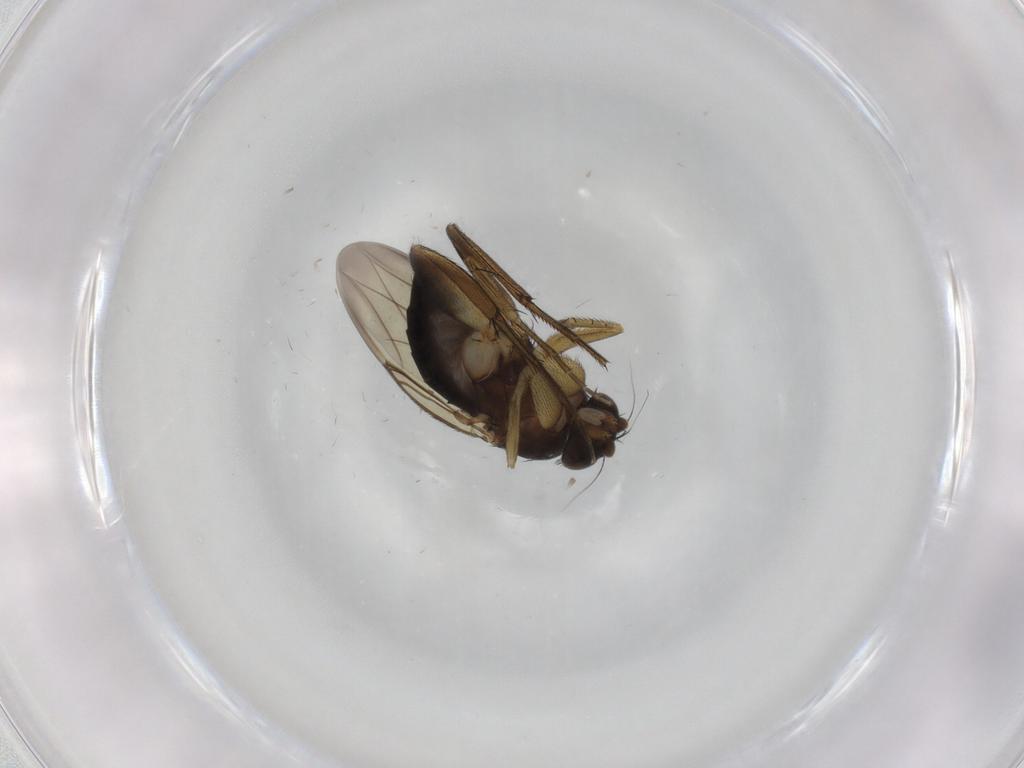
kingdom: Animalia
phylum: Arthropoda
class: Insecta
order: Diptera
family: Phoridae
